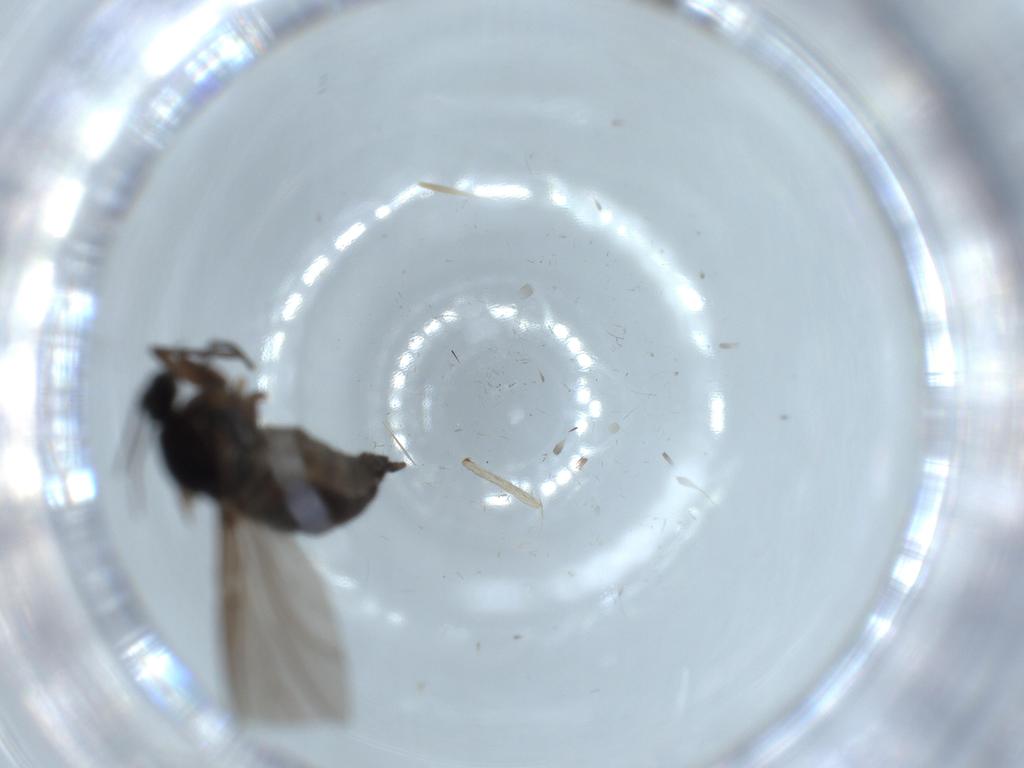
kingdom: Animalia
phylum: Arthropoda
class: Insecta
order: Diptera
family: Sciaridae
